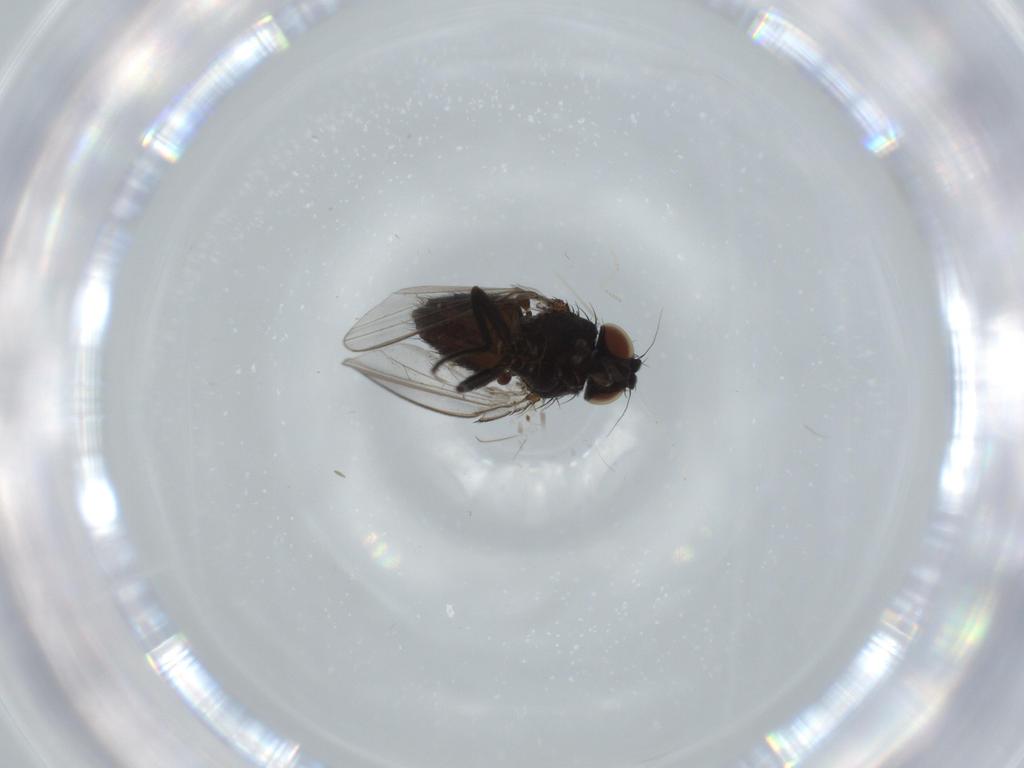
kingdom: Animalia
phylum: Arthropoda
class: Insecta
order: Diptera
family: Milichiidae
